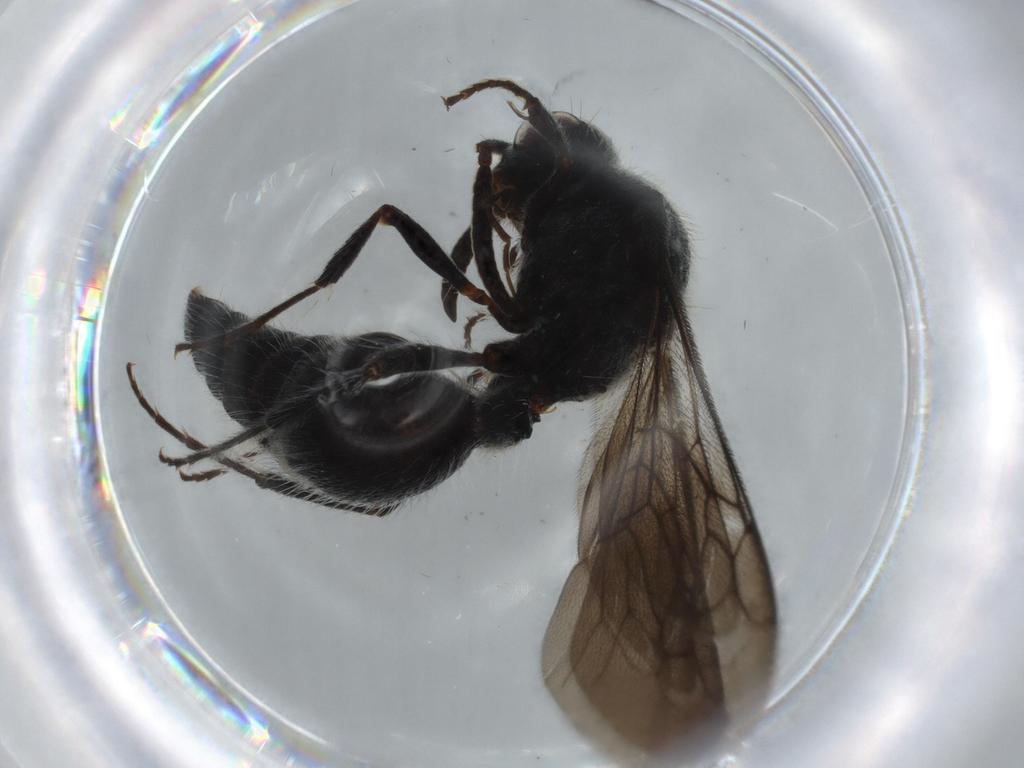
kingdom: Animalia
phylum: Arthropoda
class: Insecta
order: Hymenoptera
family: Mutillidae
